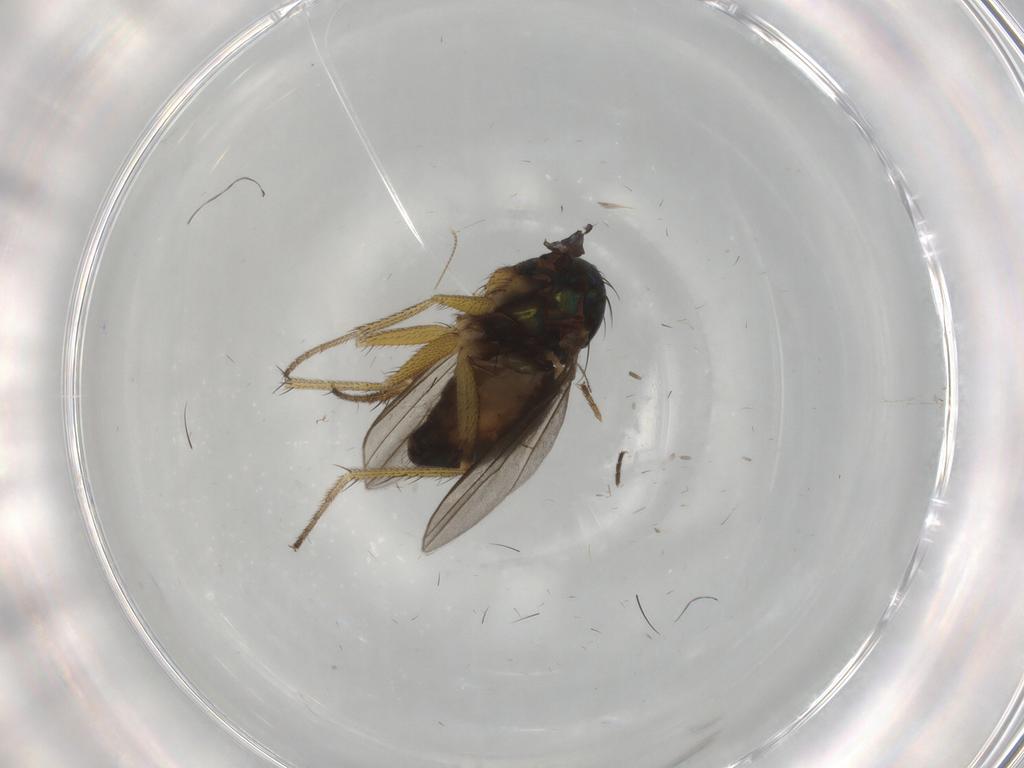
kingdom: Animalia
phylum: Arthropoda
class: Insecta
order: Diptera
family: Dolichopodidae
